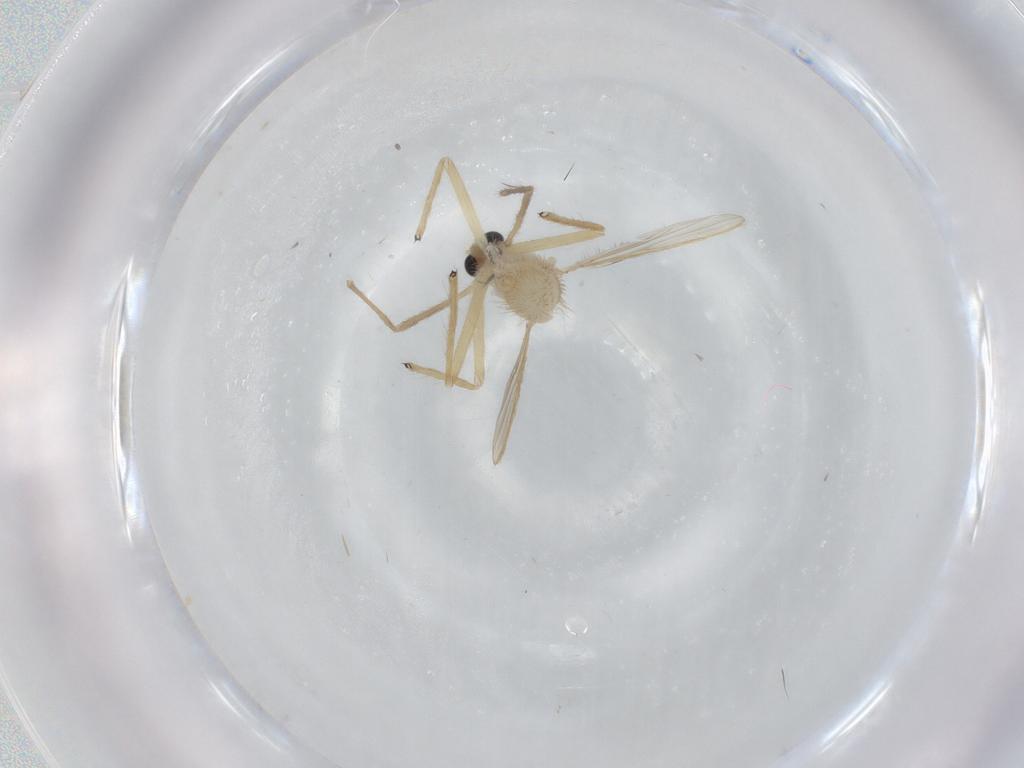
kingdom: Animalia
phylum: Arthropoda
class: Insecta
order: Diptera
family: Chironomidae
